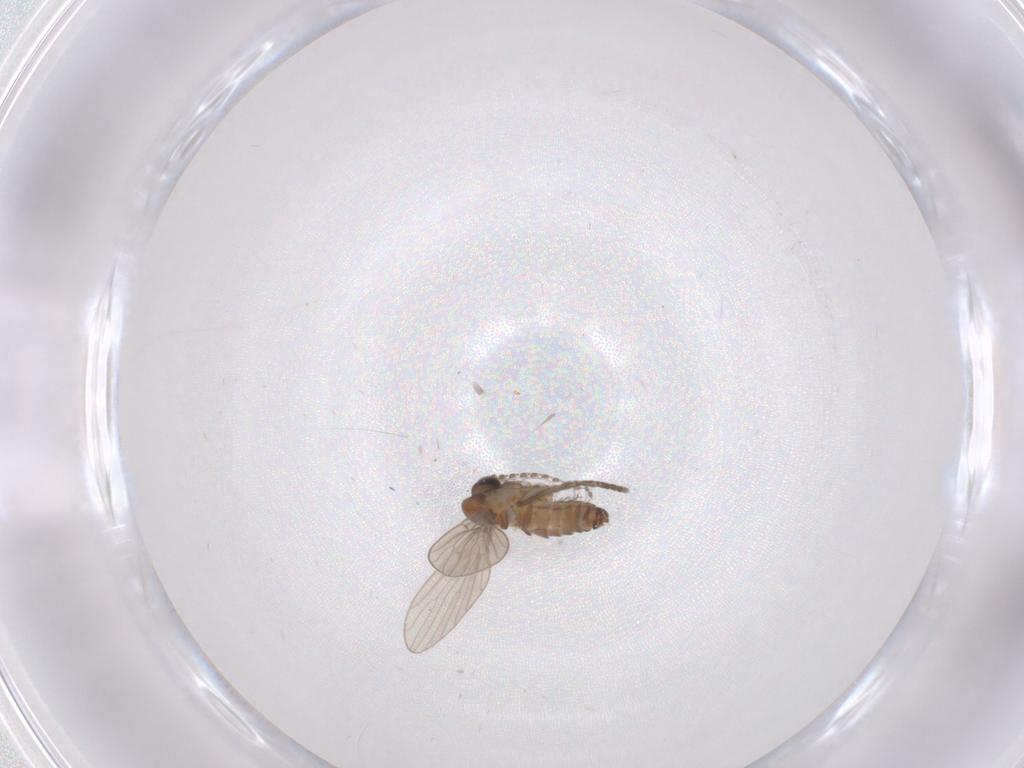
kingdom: Animalia
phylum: Arthropoda
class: Insecta
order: Diptera
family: Psychodidae
